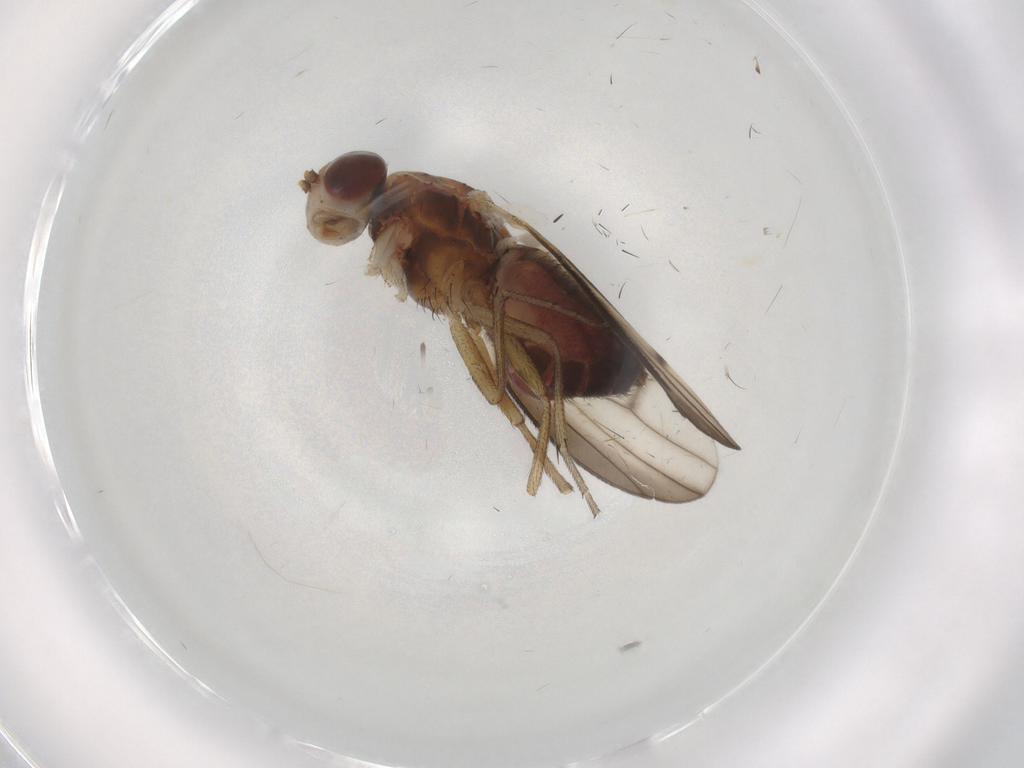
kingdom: Animalia
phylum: Arthropoda
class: Insecta
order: Diptera
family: Heleomyzidae
